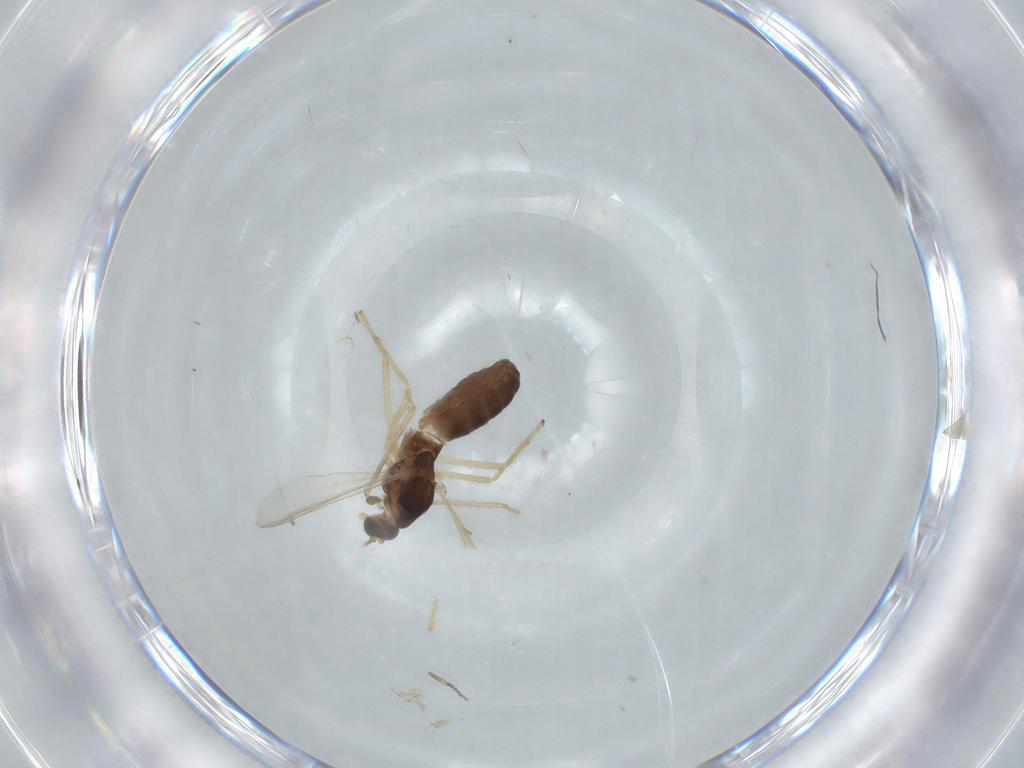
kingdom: Animalia
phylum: Arthropoda
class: Insecta
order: Diptera
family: Chironomidae
